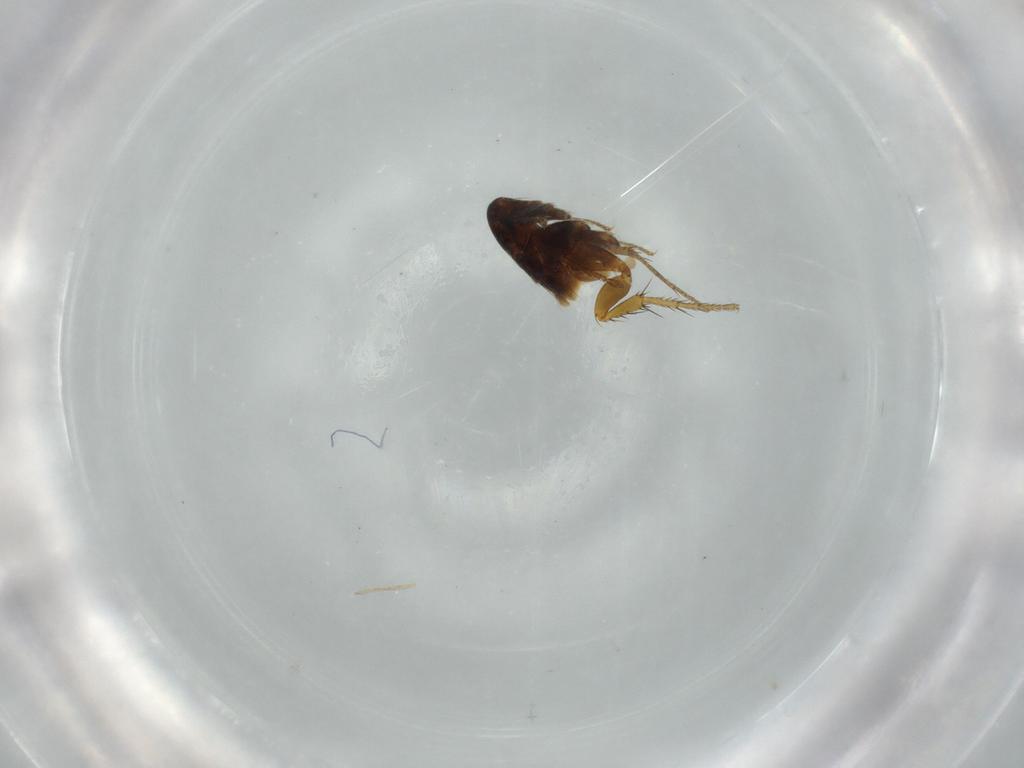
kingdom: Animalia
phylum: Arthropoda
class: Insecta
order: Siphonaptera
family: Ceratophyllidae
